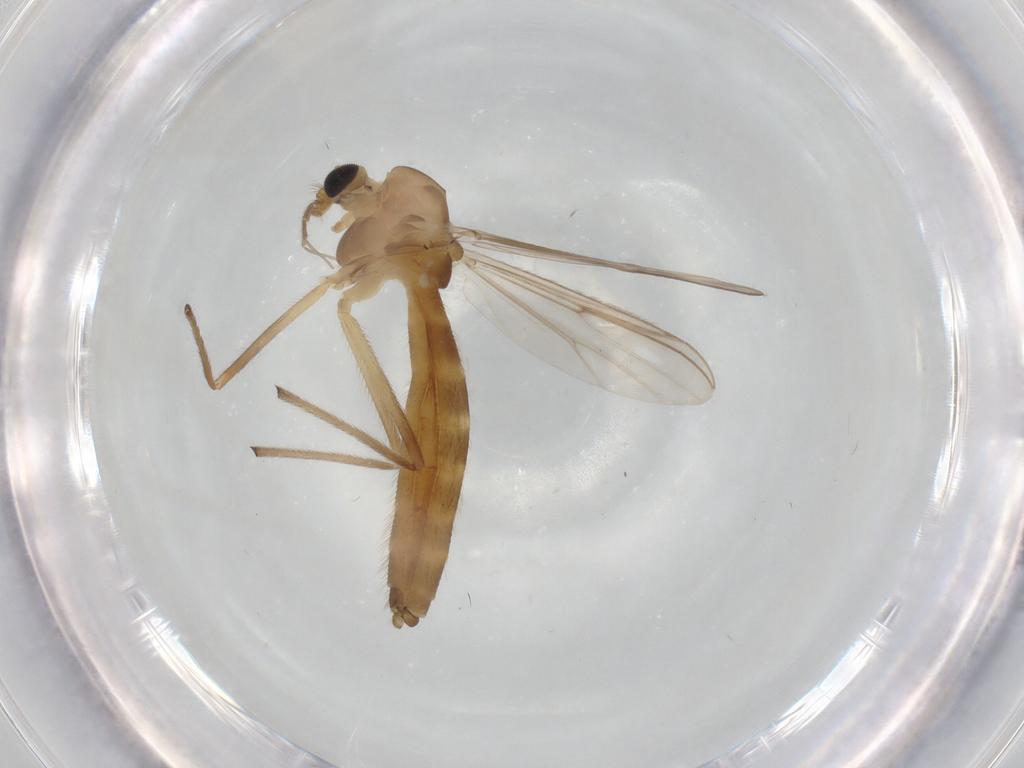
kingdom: Animalia
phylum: Arthropoda
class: Insecta
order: Diptera
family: Chironomidae
